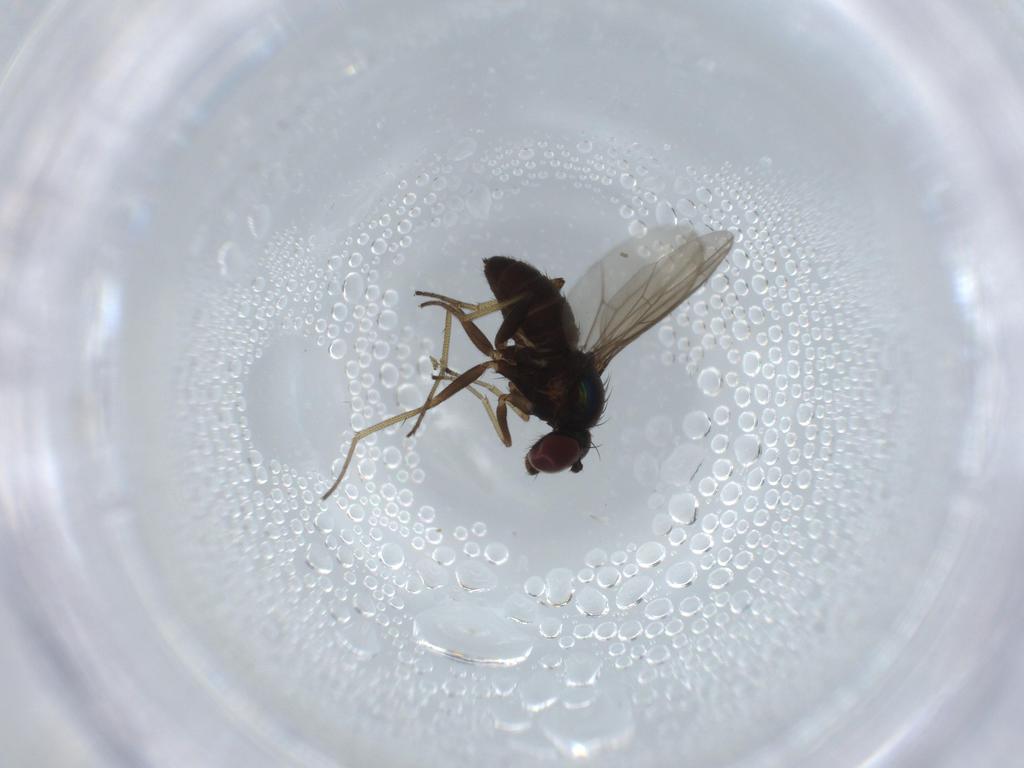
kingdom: Animalia
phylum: Arthropoda
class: Insecta
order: Diptera
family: Dolichopodidae
